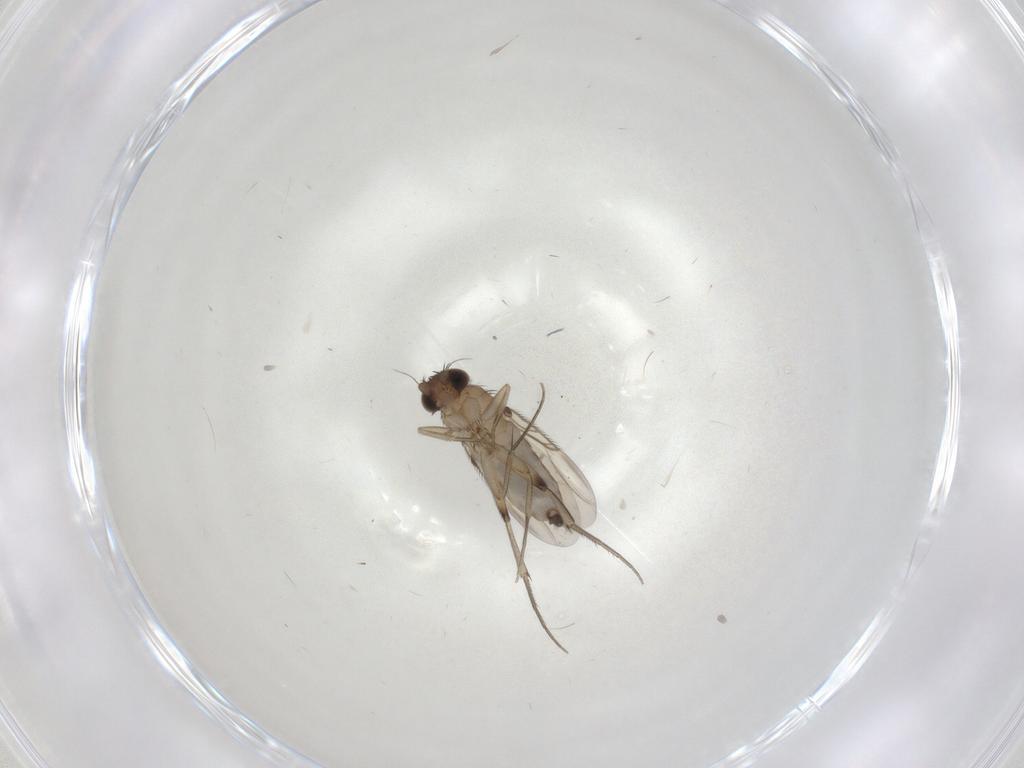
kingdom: Animalia
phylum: Arthropoda
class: Insecta
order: Diptera
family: Phoridae
